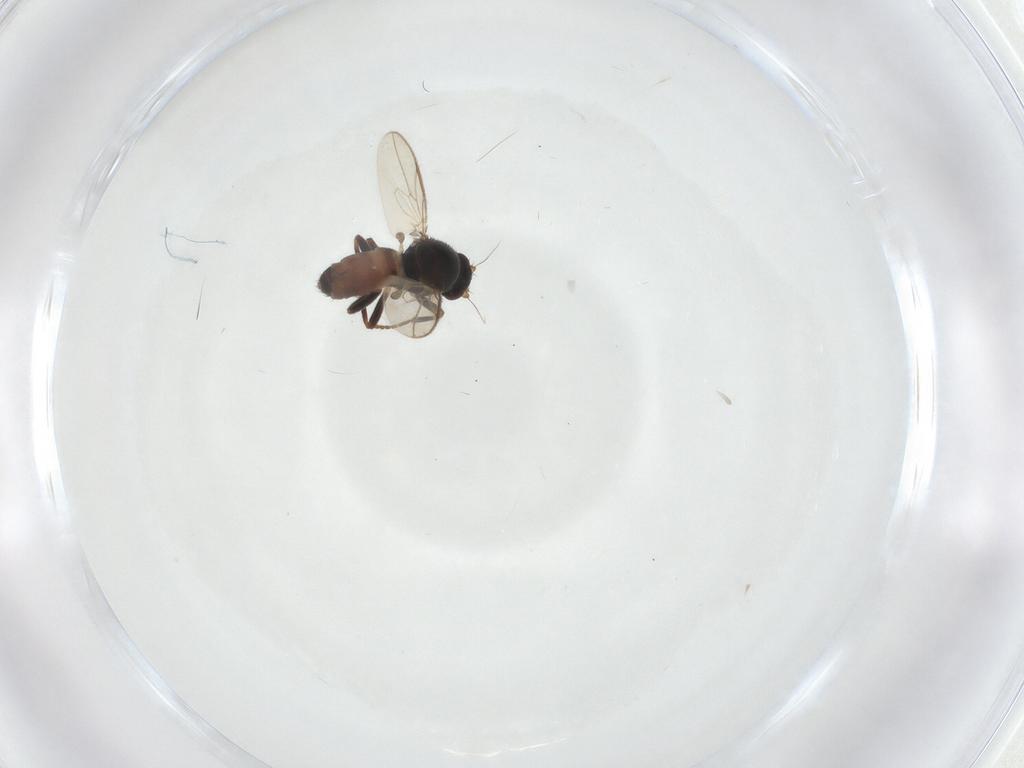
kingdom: Animalia
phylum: Arthropoda
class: Insecta
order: Diptera
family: Sphaeroceridae
